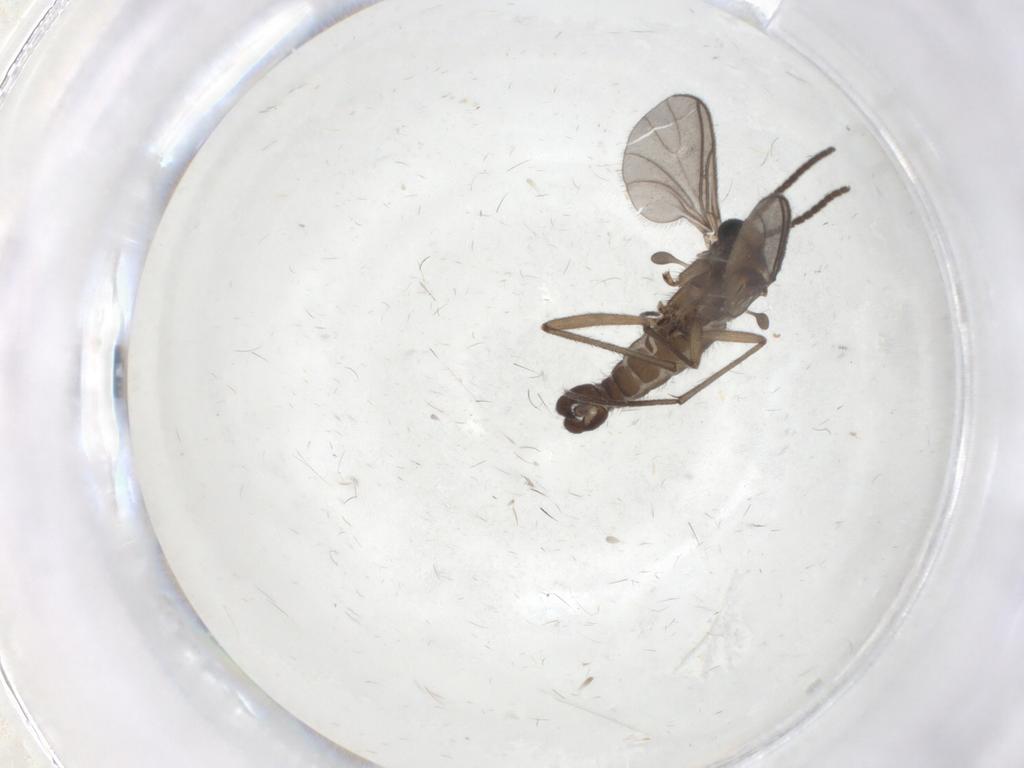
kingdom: Animalia
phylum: Arthropoda
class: Insecta
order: Diptera
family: Sciaridae
